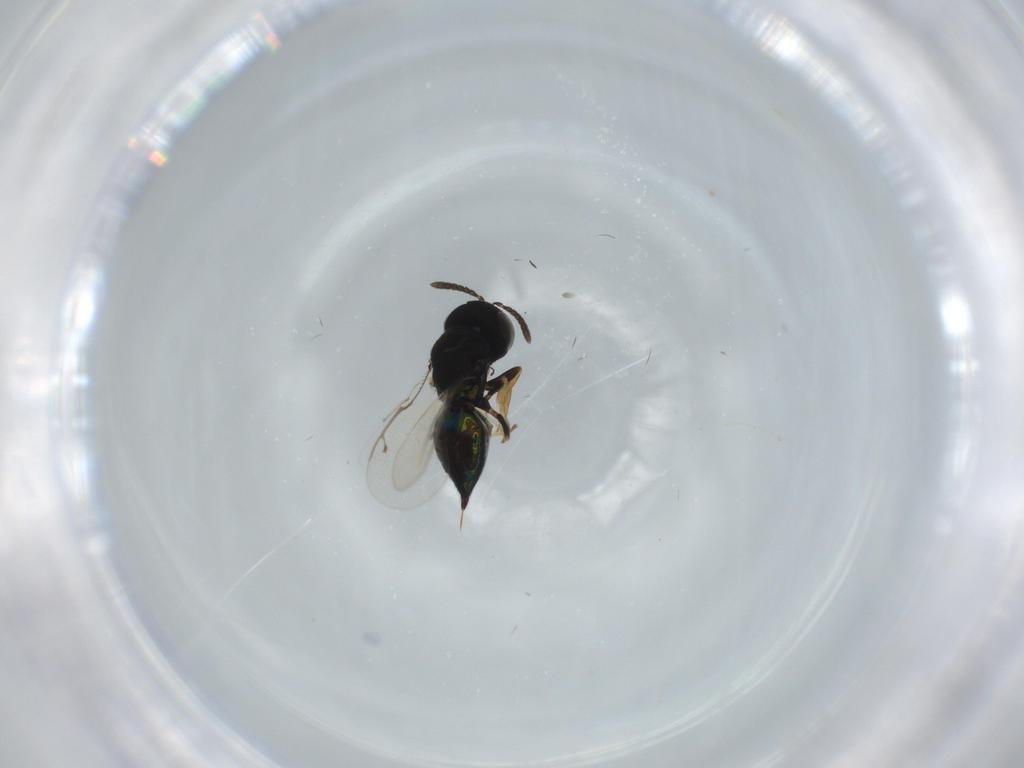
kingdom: Animalia
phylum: Arthropoda
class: Insecta
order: Hymenoptera
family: Pteromalidae
